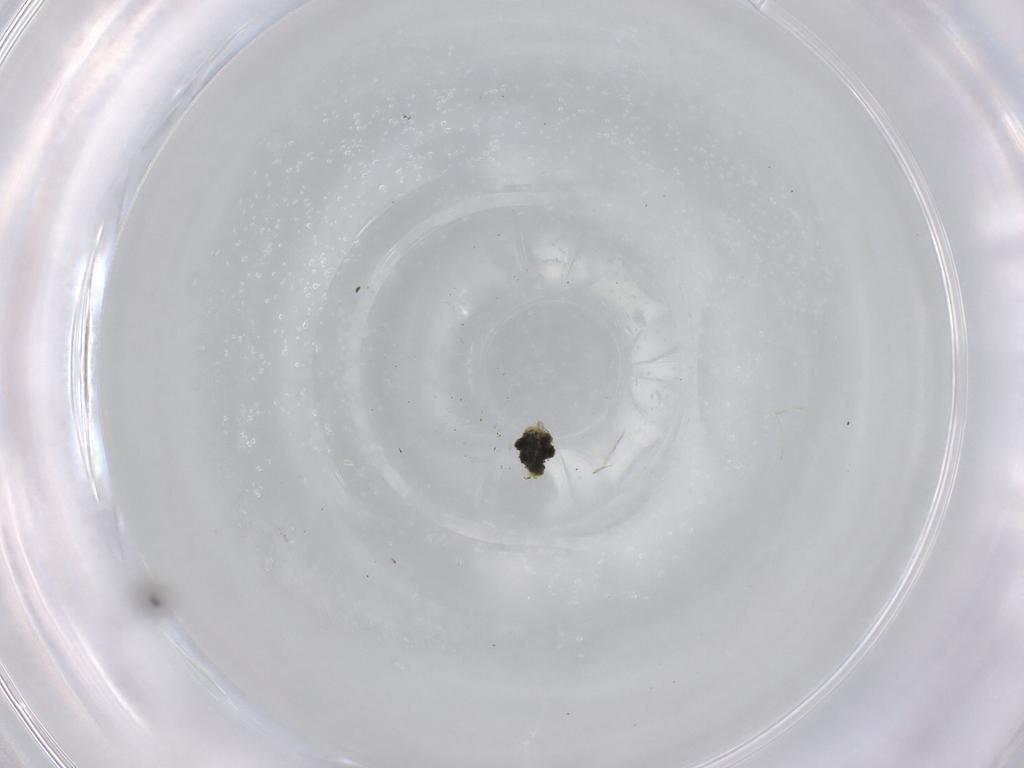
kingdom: Animalia
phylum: Arthropoda
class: Insecta
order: Diptera
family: Cecidomyiidae
